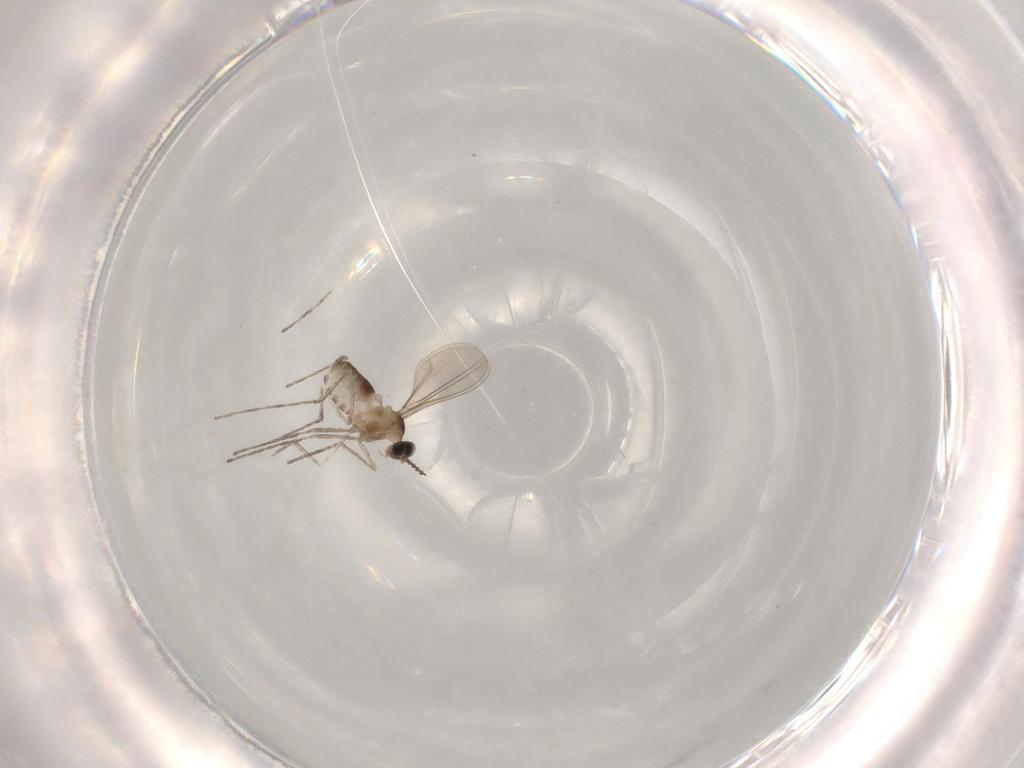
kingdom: Animalia
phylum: Arthropoda
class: Insecta
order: Diptera
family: Cecidomyiidae
